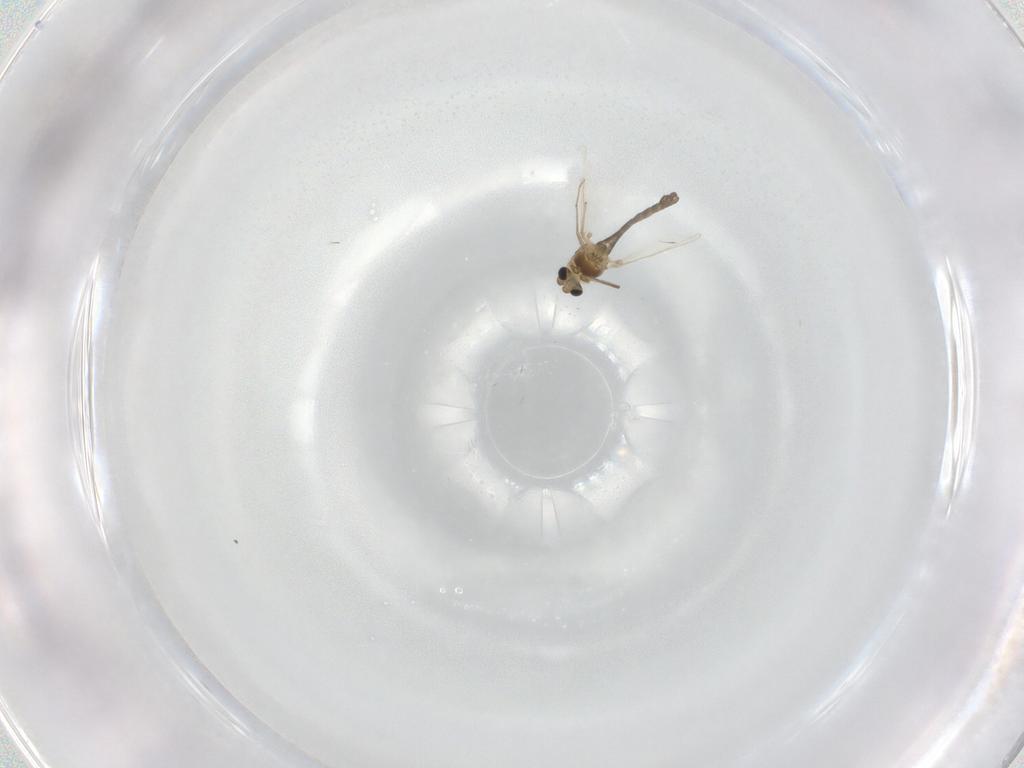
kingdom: Animalia
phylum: Arthropoda
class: Insecta
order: Diptera
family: Chironomidae
